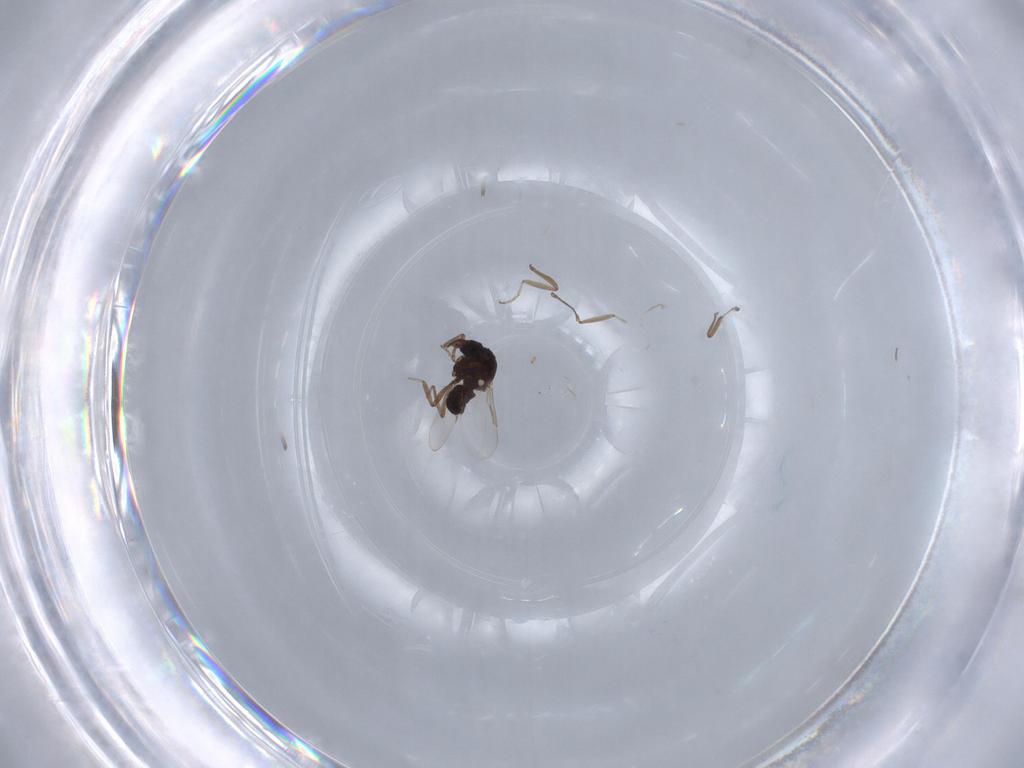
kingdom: Animalia
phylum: Arthropoda
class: Insecta
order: Diptera
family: Ceratopogonidae
